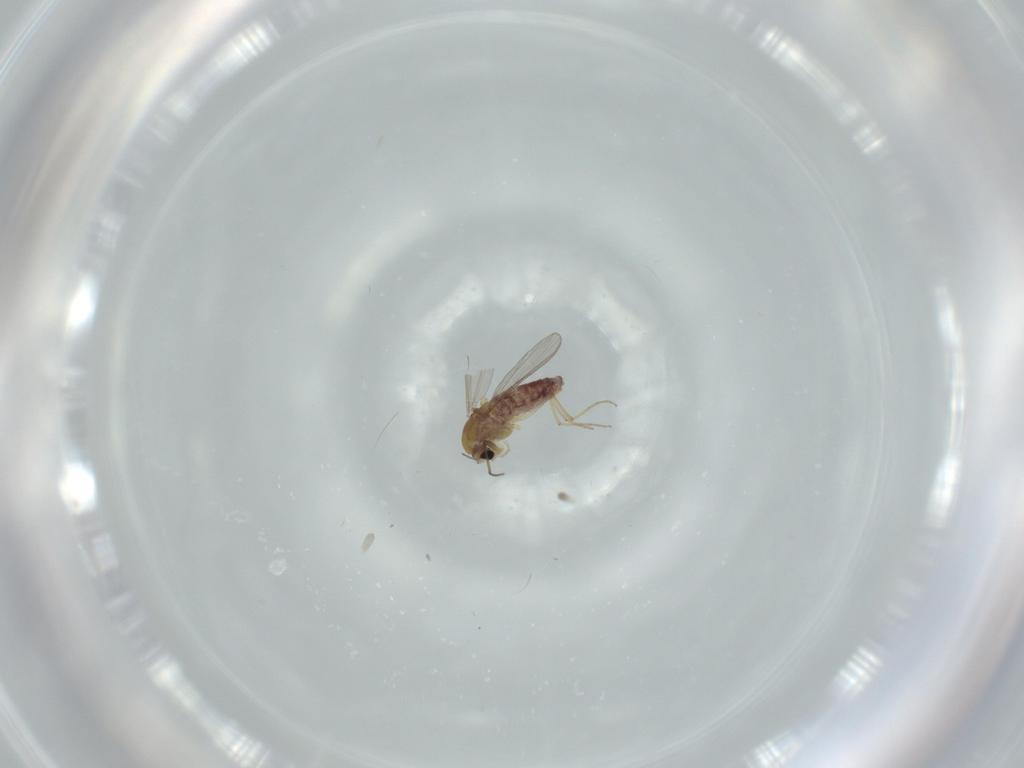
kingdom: Animalia
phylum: Arthropoda
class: Insecta
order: Diptera
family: Chironomidae
